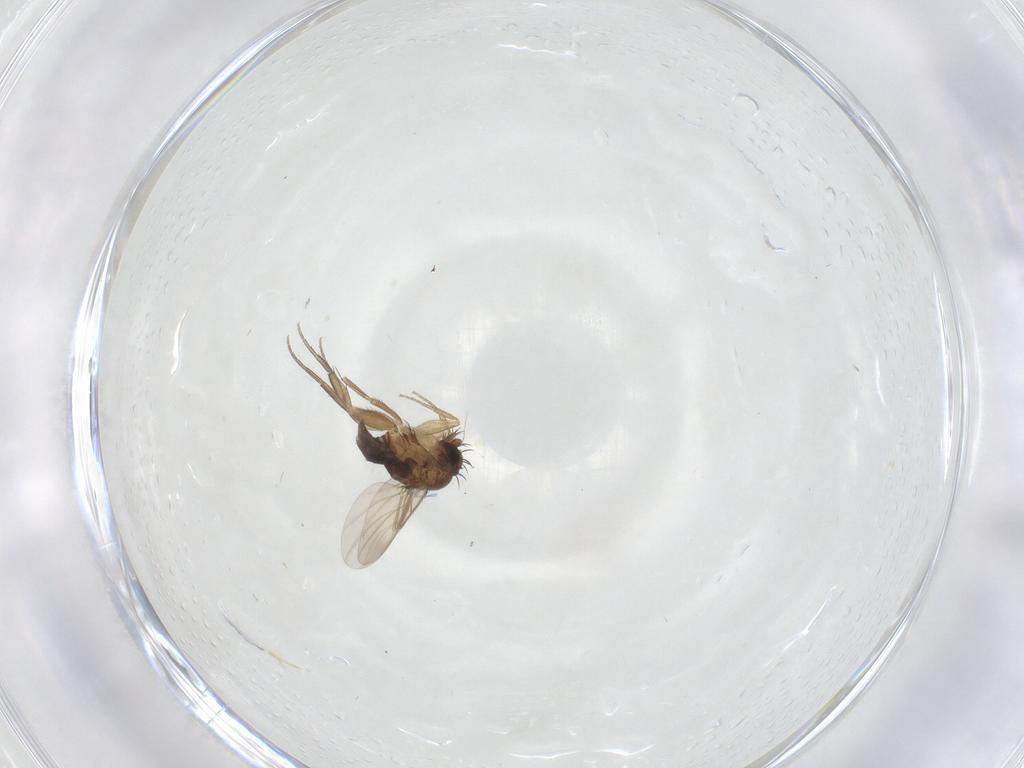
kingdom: Animalia
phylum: Arthropoda
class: Insecta
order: Diptera
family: Phoridae
